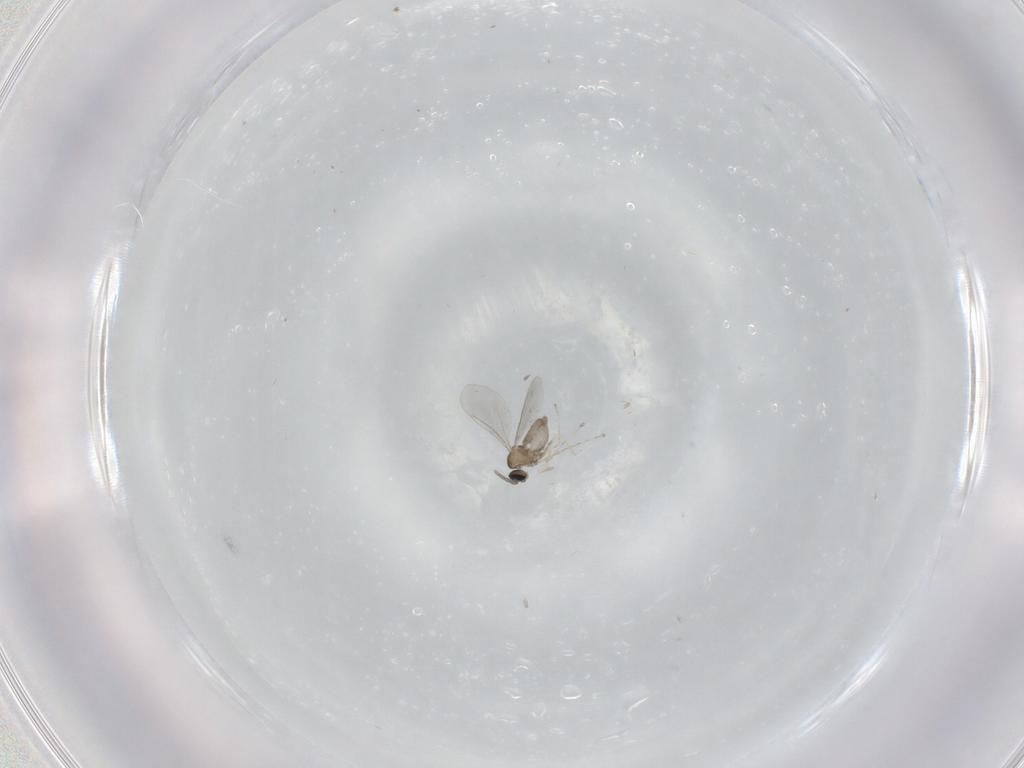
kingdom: Animalia
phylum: Arthropoda
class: Insecta
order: Diptera
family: Cecidomyiidae
